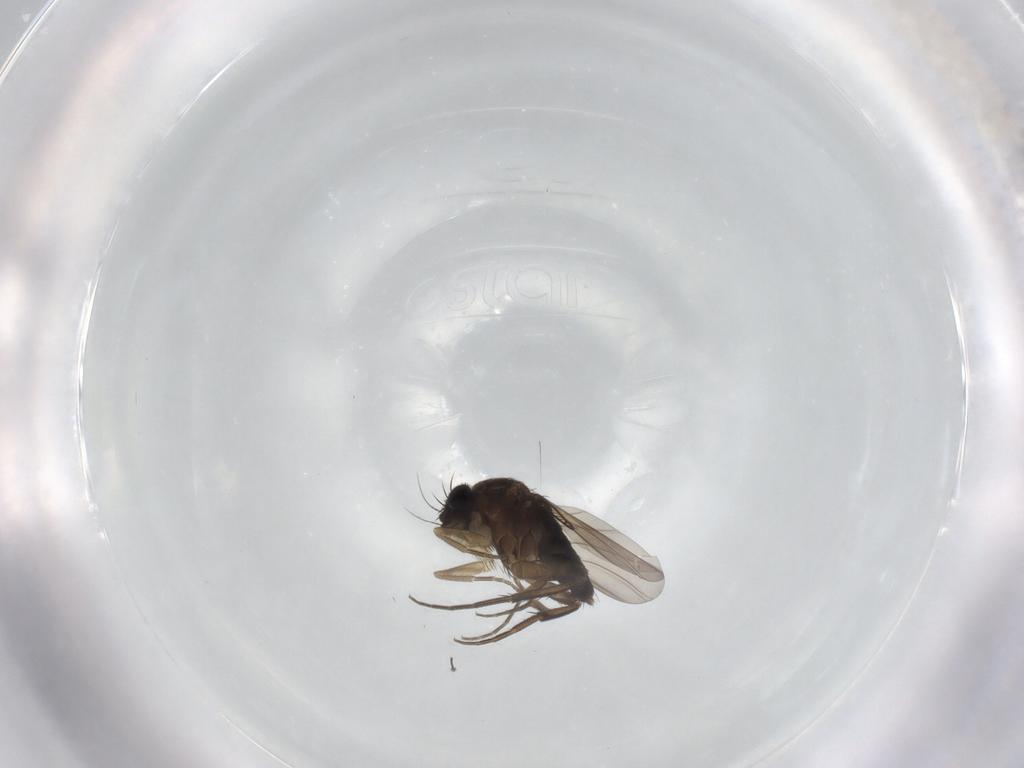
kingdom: Animalia
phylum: Arthropoda
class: Insecta
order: Diptera
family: Phoridae
